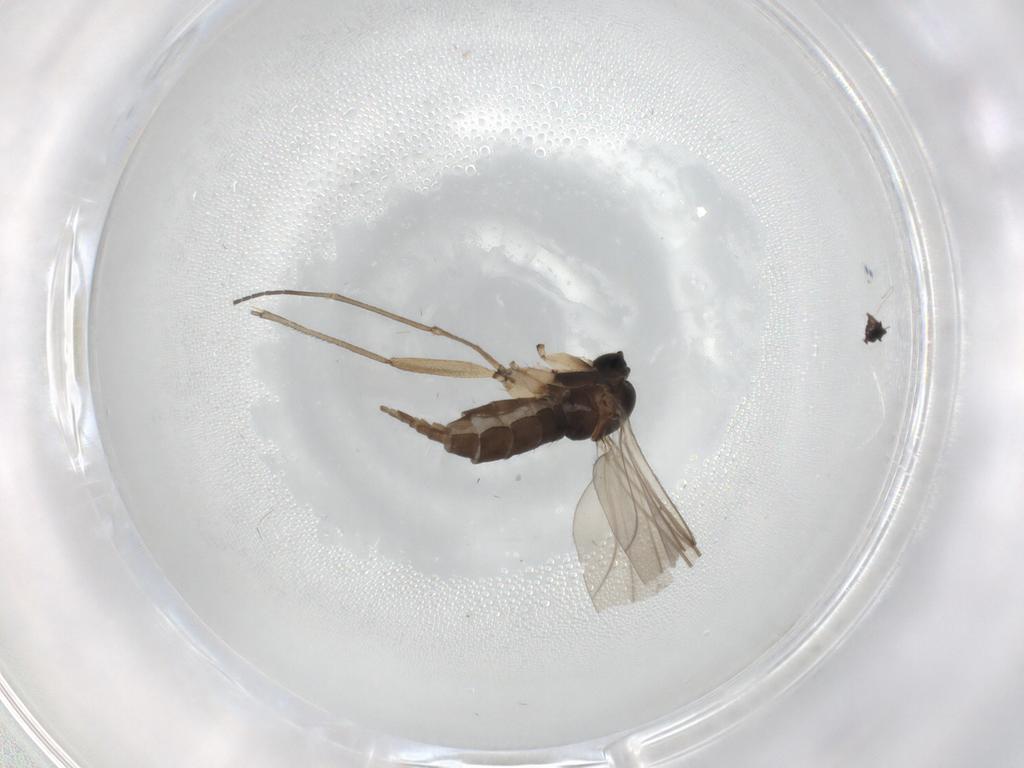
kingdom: Animalia
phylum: Arthropoda
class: Insecta
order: Diptera
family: Sciaridae
